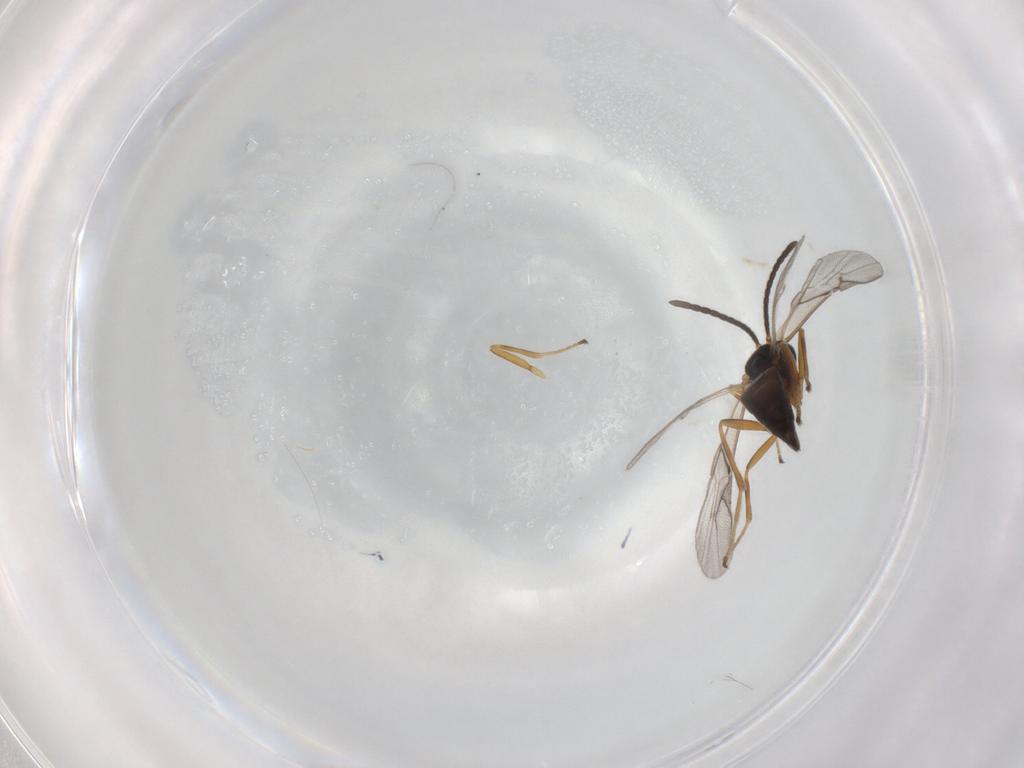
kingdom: Animalia
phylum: Arthropoda
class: Insecta
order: Hymenoptera
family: Braconidae
